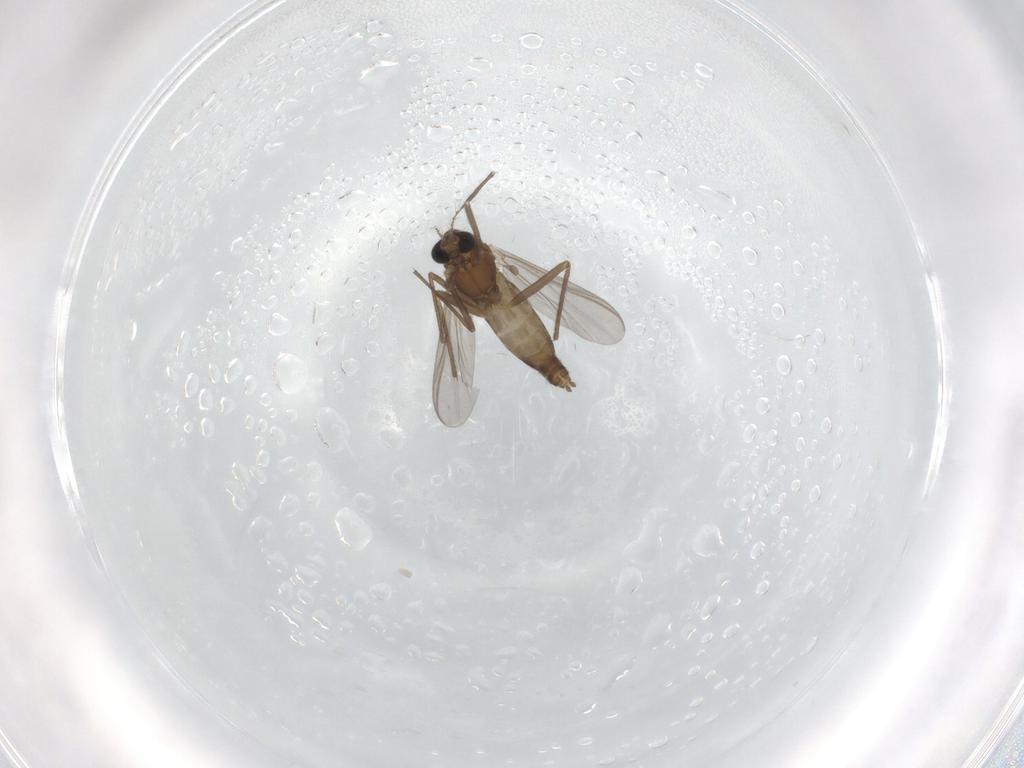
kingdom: Animalia
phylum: Arthropoda
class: Insecta
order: Diptera
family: Chironomidae
